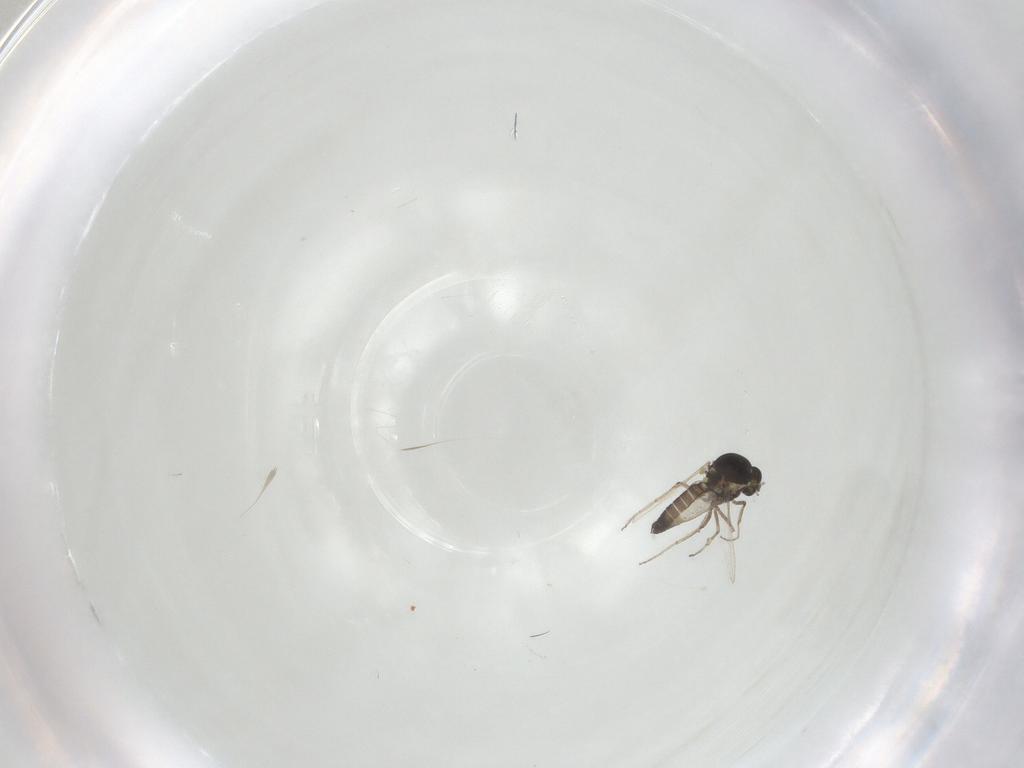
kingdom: Animalia
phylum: Arthropoda
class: Insecta
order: Diptera
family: Ceratopogonidae
